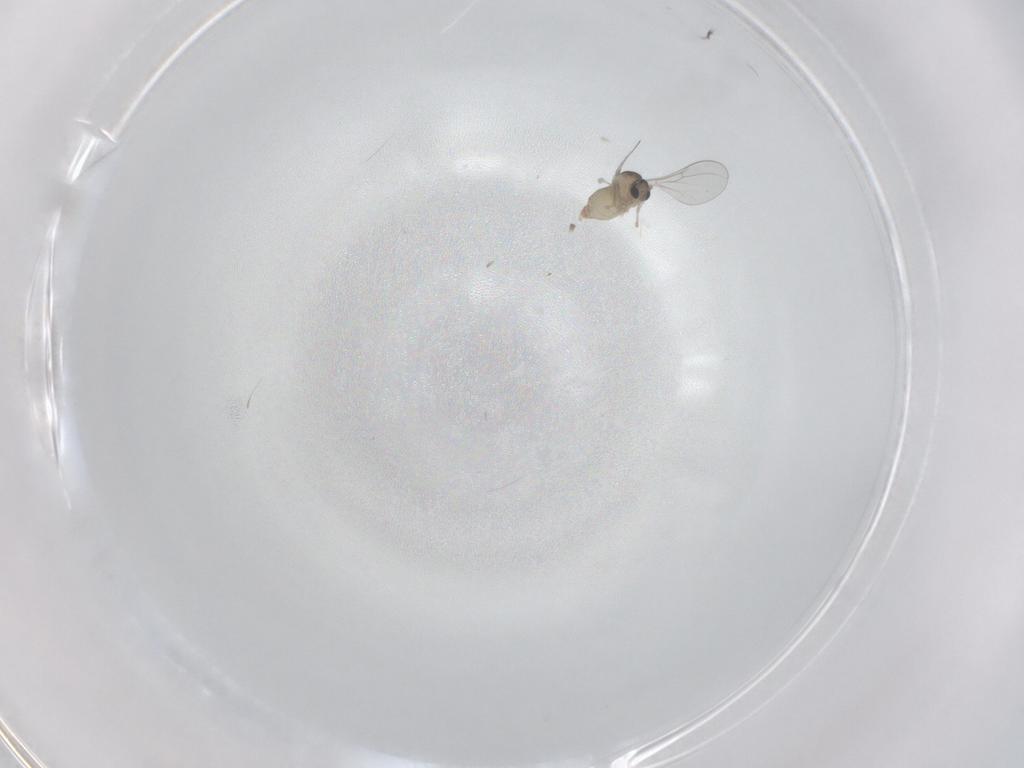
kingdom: Animalia
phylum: Arthropoda
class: Insecta
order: Diptera
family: Cecidomyiidae
